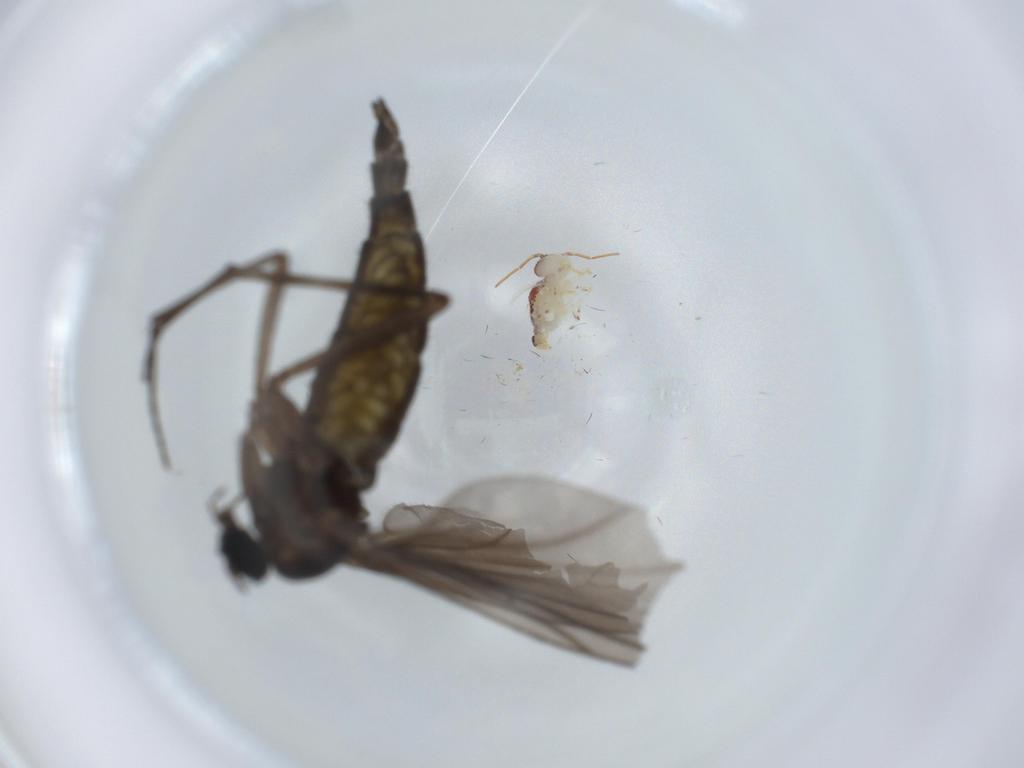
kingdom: Animalia
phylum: Arthropoda
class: Insecta
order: Diptera
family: Sciaridae
